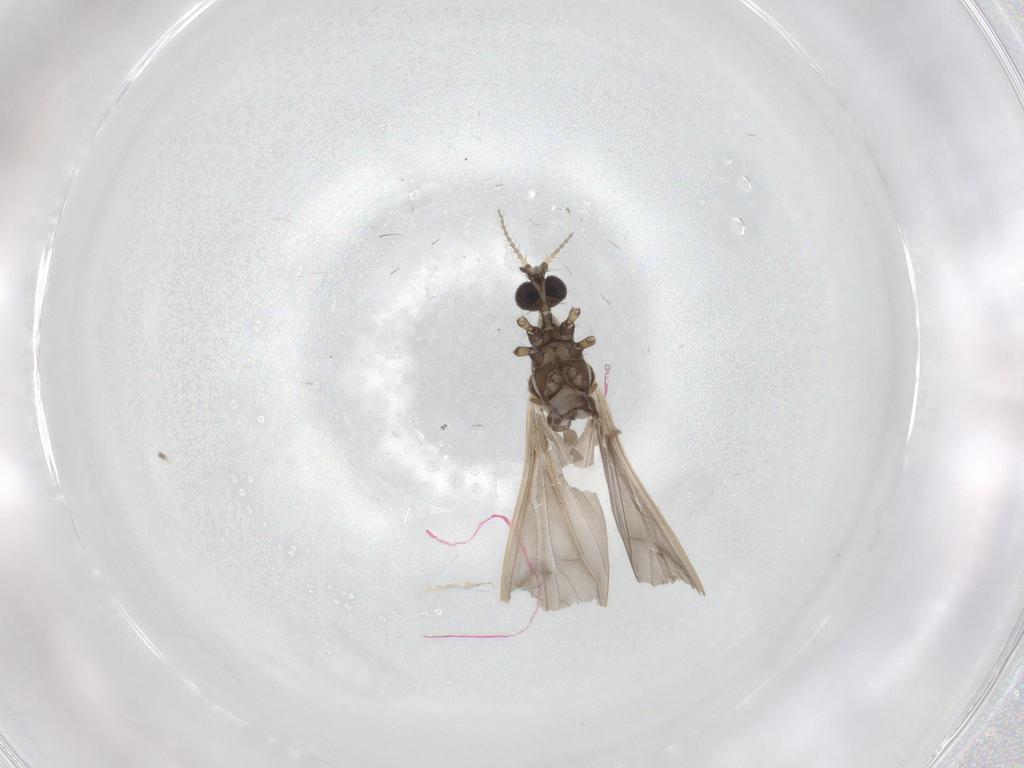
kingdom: Animalia
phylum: Arthropoda
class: Insecta
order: Diptera
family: Limoniidae
